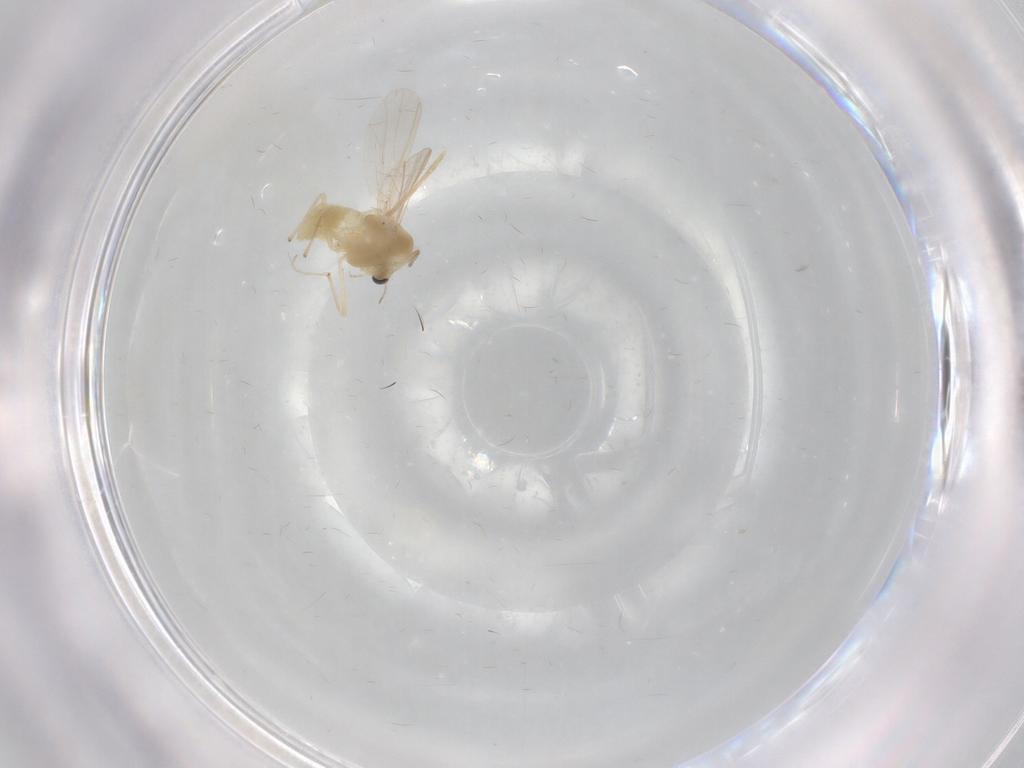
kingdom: Animalia
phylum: Arthropoda
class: Insecta
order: Diptera
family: Chironomidae
